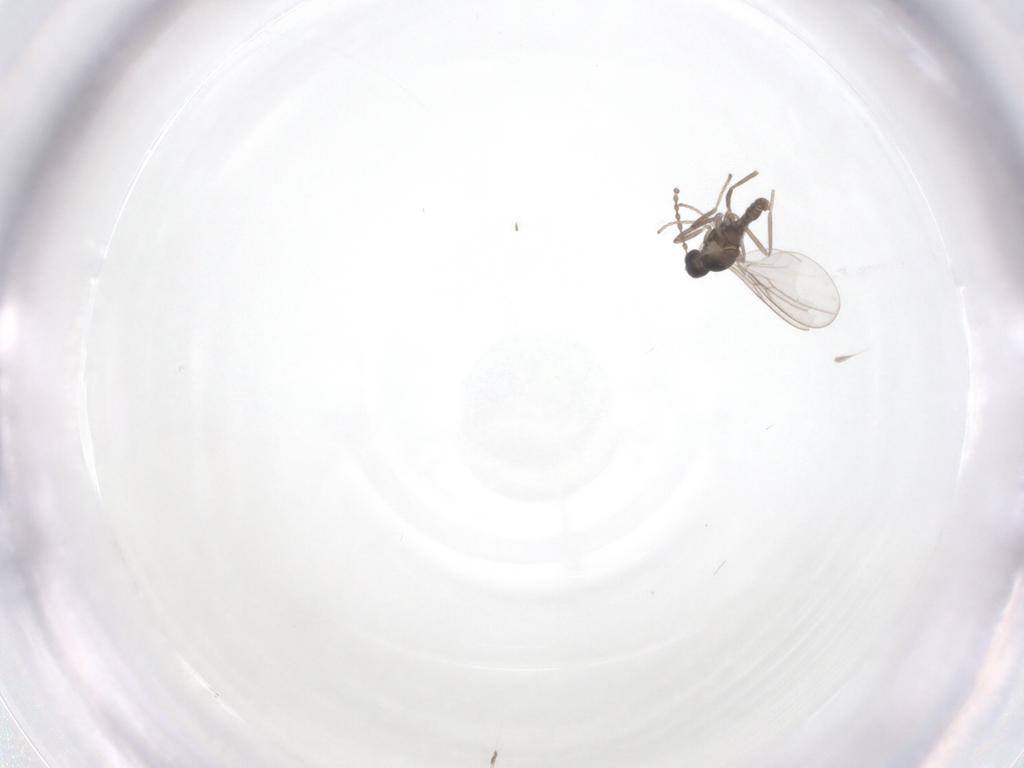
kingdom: Animalia
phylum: Arthropoda
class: Insecta
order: Diptera
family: Cecidomyiidae
